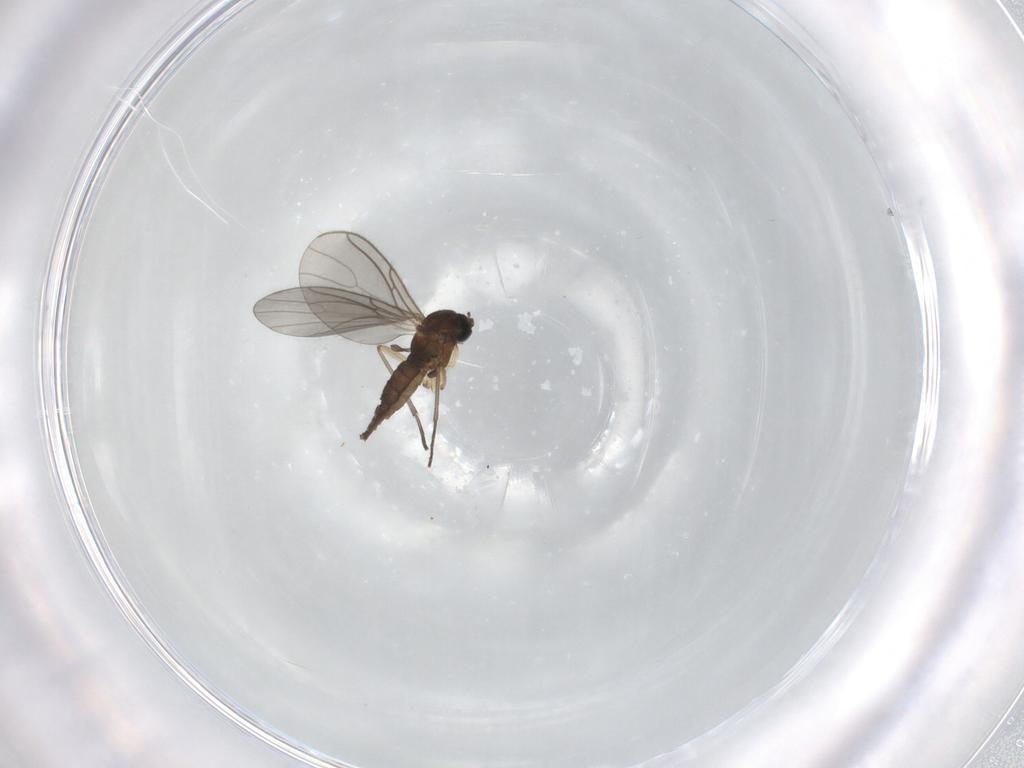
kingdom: Animalia
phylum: Arthropoda
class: Insecta
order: Diptera
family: Sciaridae
